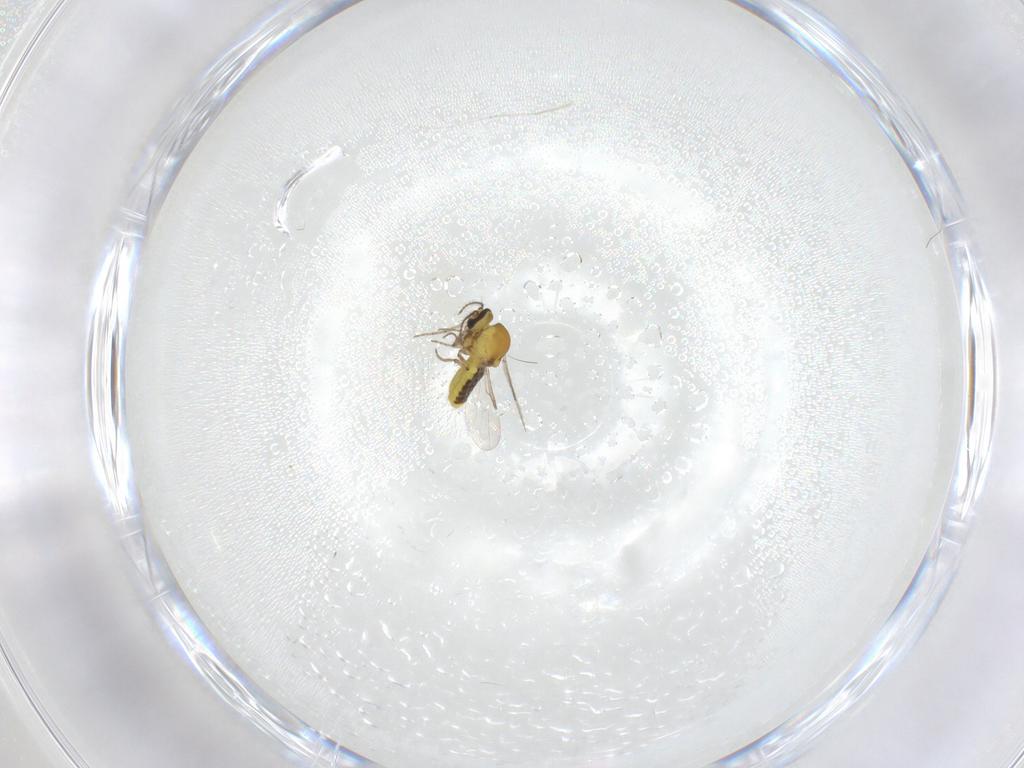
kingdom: Animalia
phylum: Arthropoda
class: Insecta
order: Diptera
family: Ceratopogonidae
